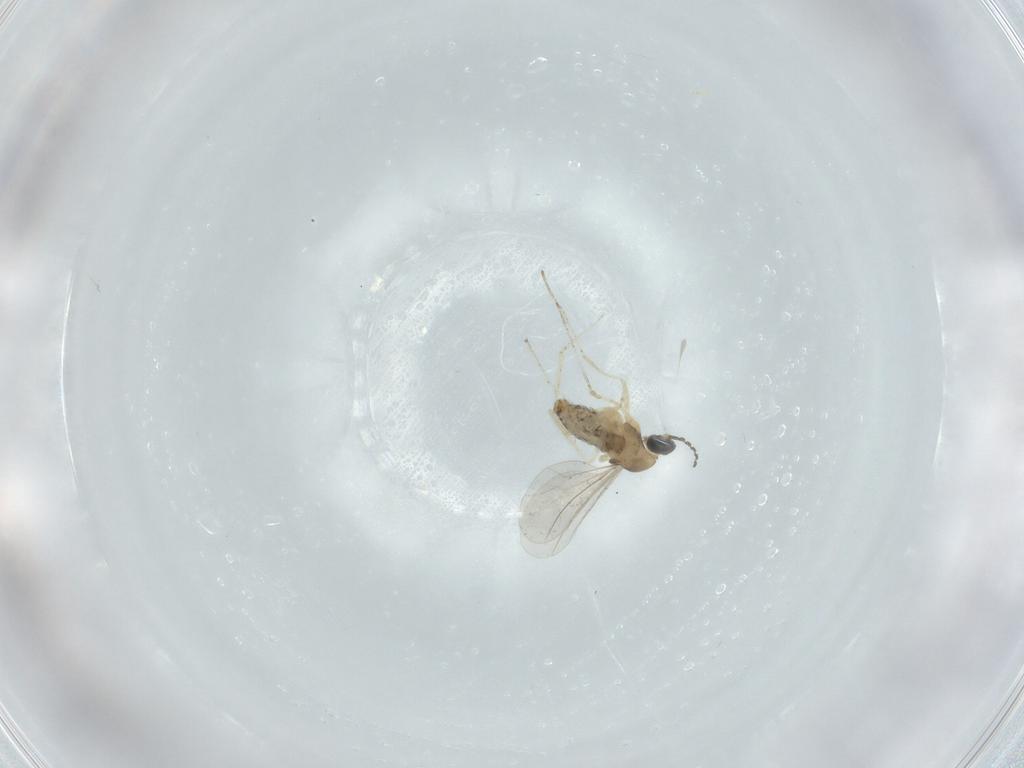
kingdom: Animalia
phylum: Arthropoda
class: Insecta
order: Diptera
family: Cecidomyiidae
